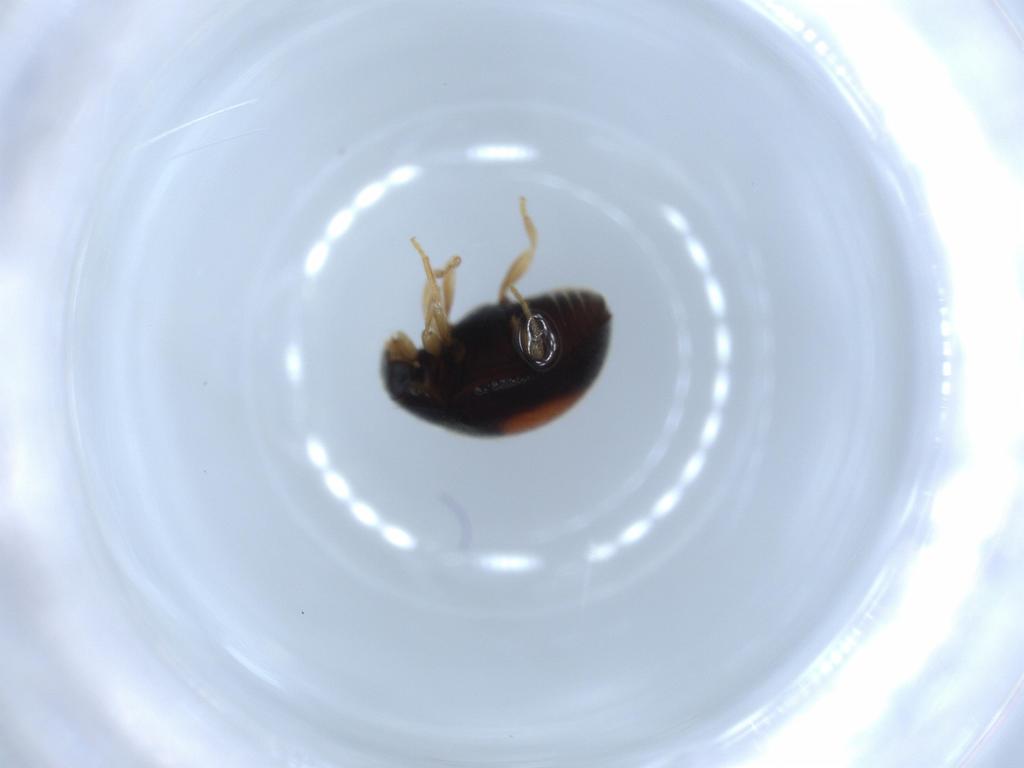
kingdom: Animalia
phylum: Arthropoda
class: Insecta
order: Coleoptera
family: Coccinellidae
